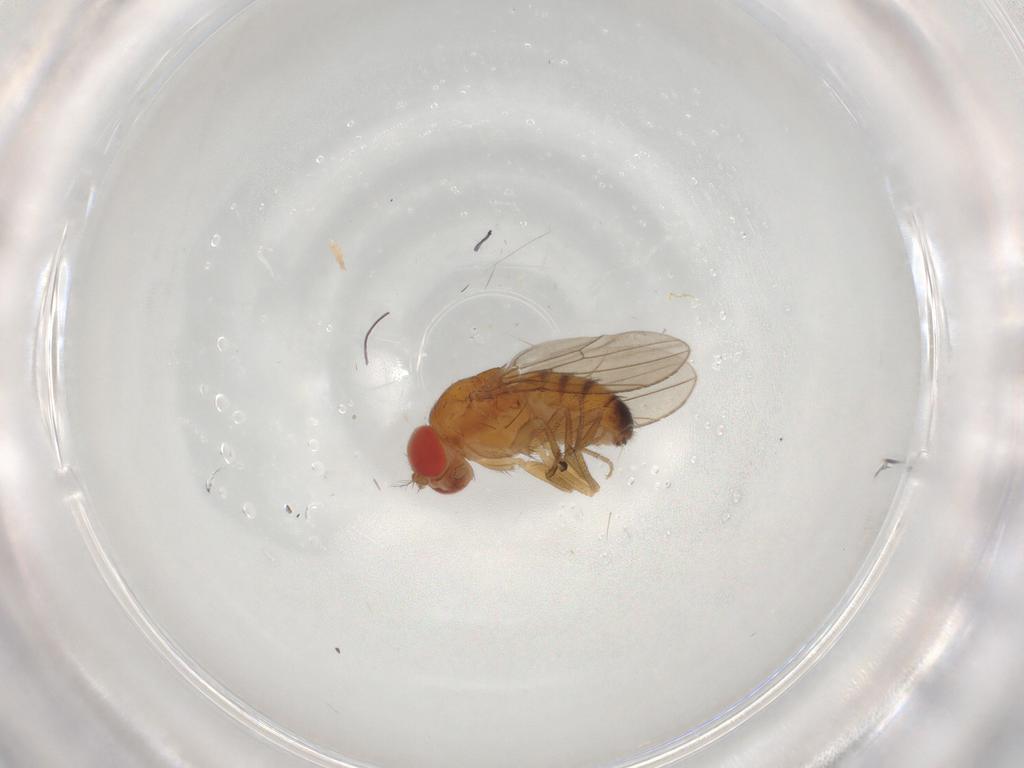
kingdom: Animalia
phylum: Arthropoda
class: Insecta
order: Diptera
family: Drosophilidae
